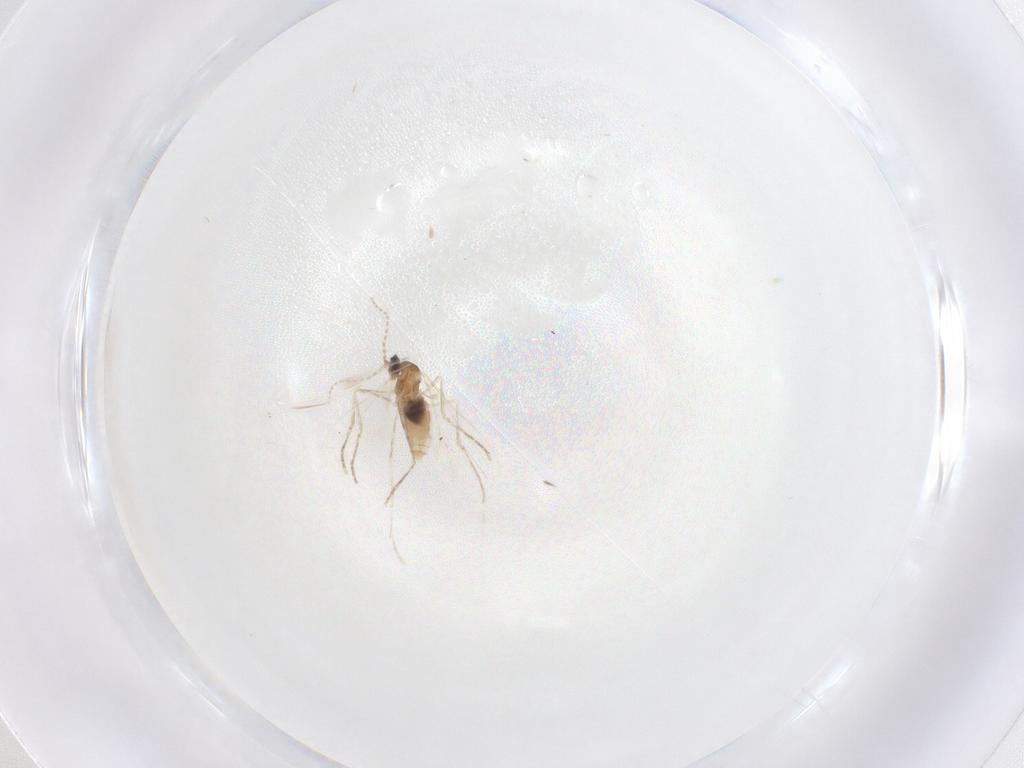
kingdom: Animalia
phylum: Arthropoda
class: Insecta
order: Diptera
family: Cecidomyiidae
